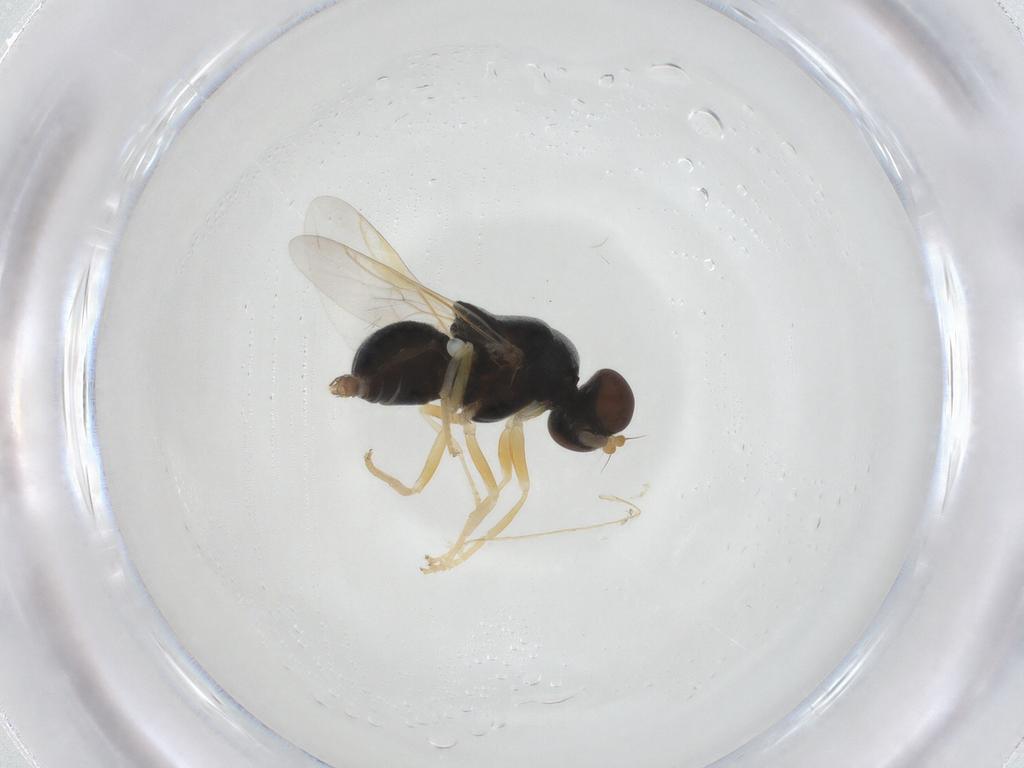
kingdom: Animalia
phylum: Arthropoda
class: Insecta
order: Diptera
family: Stratiomyidae
